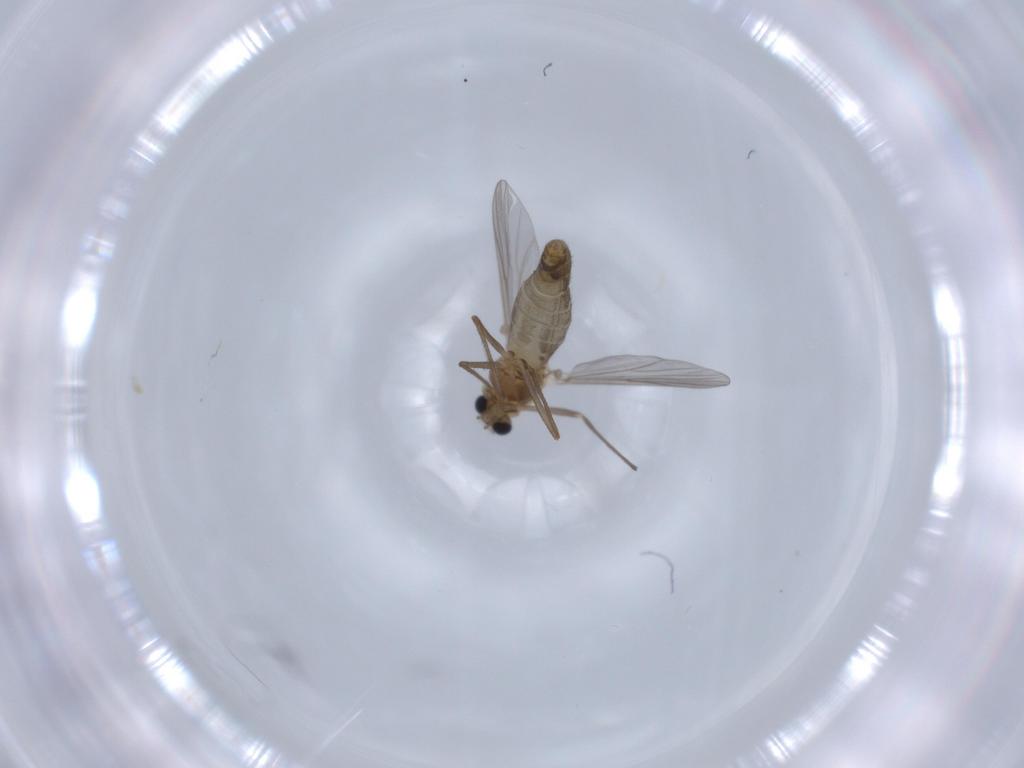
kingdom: Animalia
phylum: Arthropoda
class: Insecta
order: Diptera
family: Chironomidae
